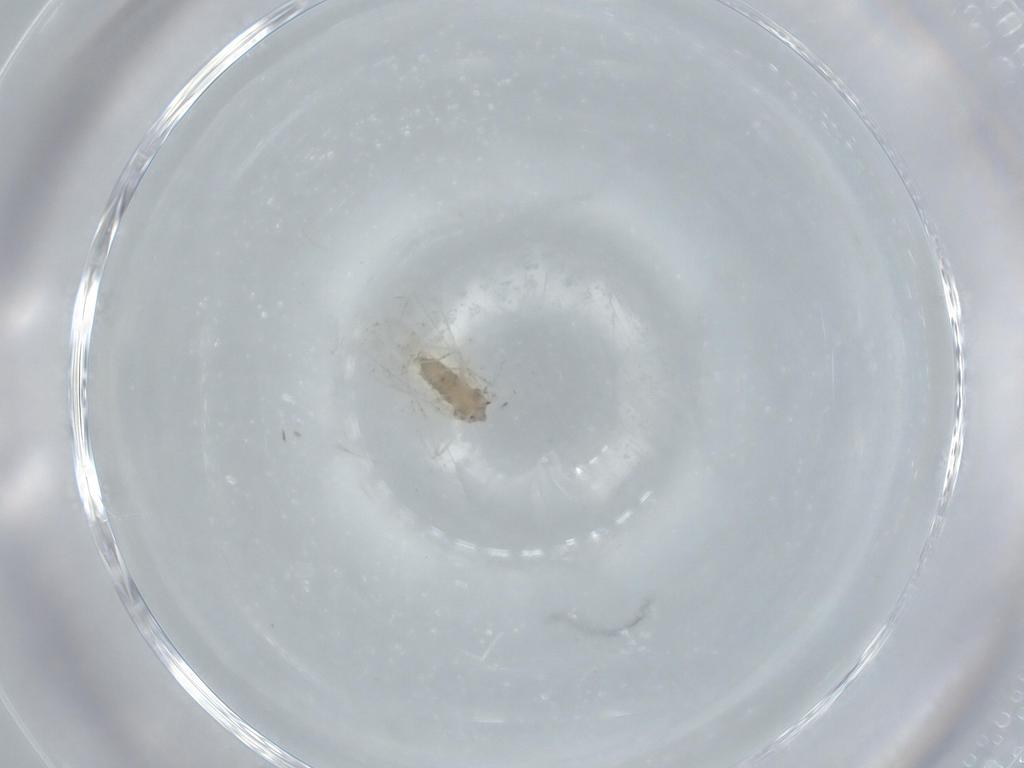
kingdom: Animalia
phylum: Arthropoda
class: Insecta
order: Diptera
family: Cecidomyiidae
